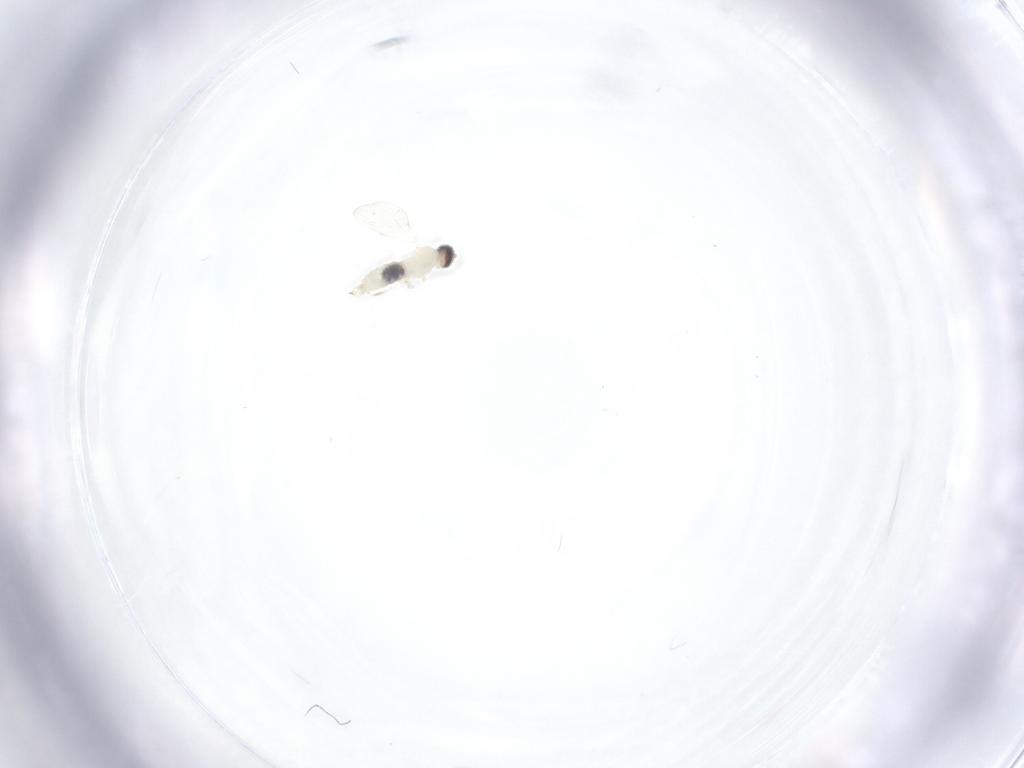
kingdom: Animalia
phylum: Arthropoda
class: Insecta
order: Diptera
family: Cecidomyiidae
